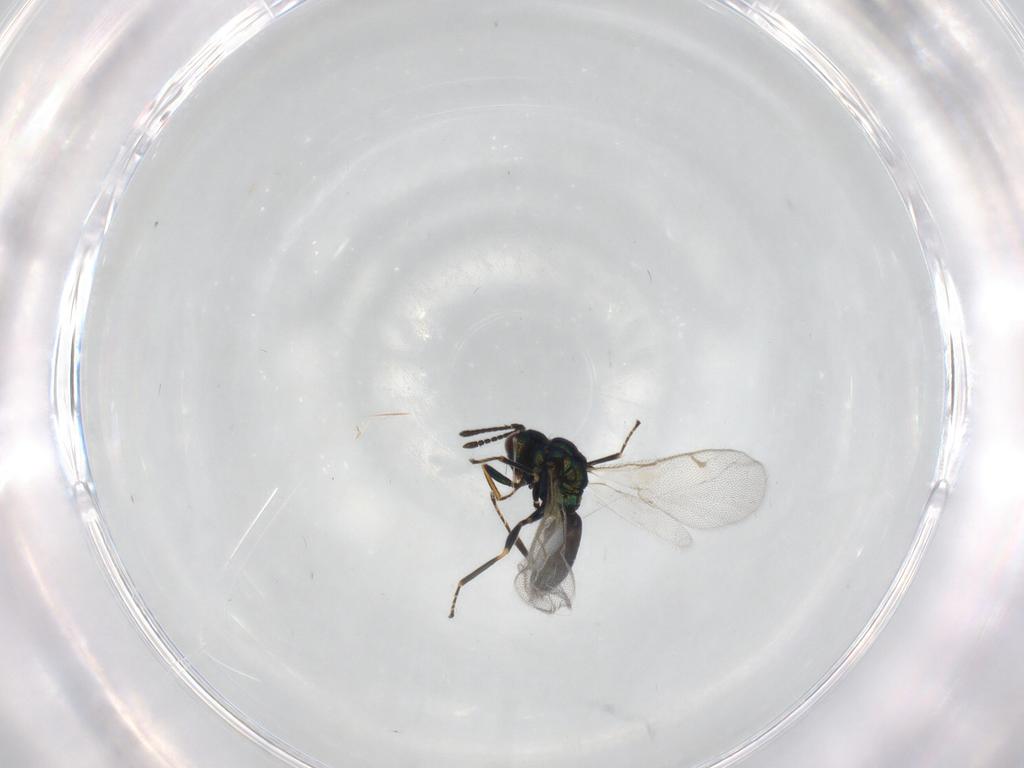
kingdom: Animalia
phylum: Arthropoda
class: Insecta
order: Hymenoptera
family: Pteromalidae
